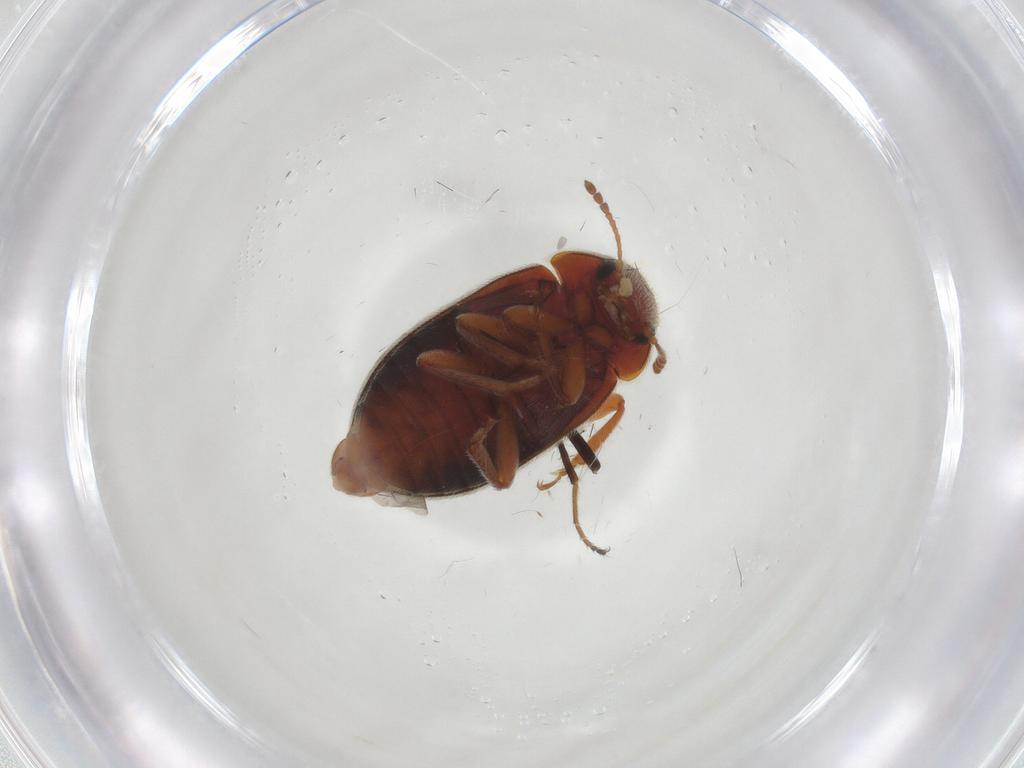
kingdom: Animalia
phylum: Arthropoda
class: Insecta
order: Coleoptera
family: Byturidae
